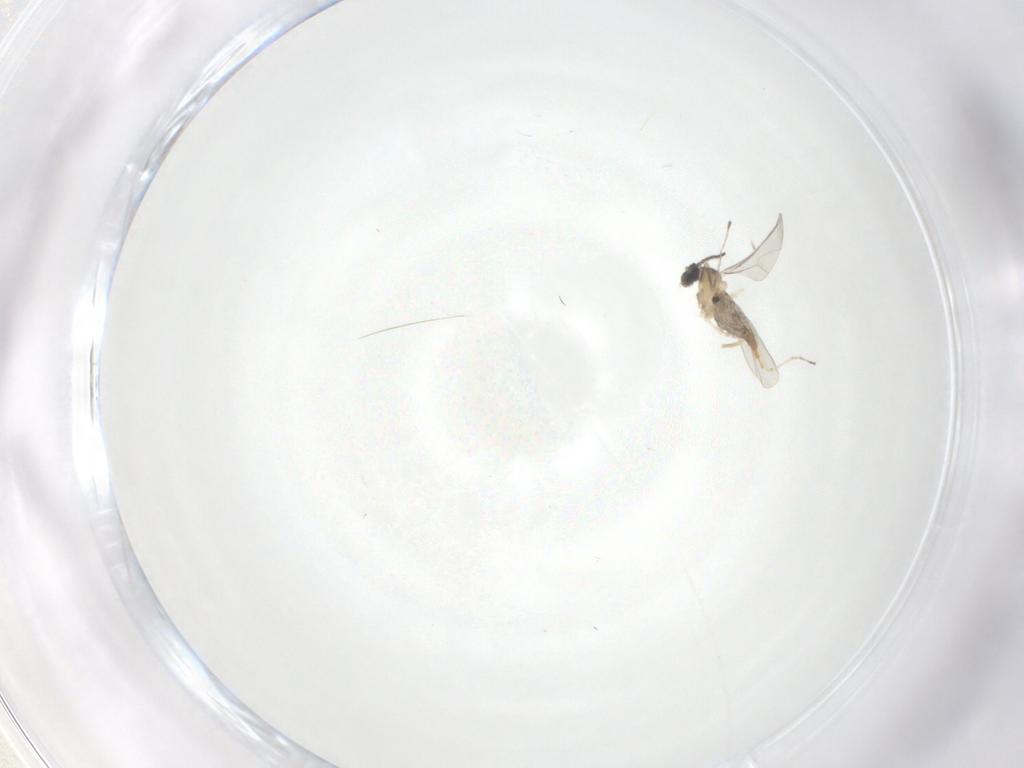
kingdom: Animalia
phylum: Arthropoda
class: Insecta
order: Diptera
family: Cecidomyiidae
